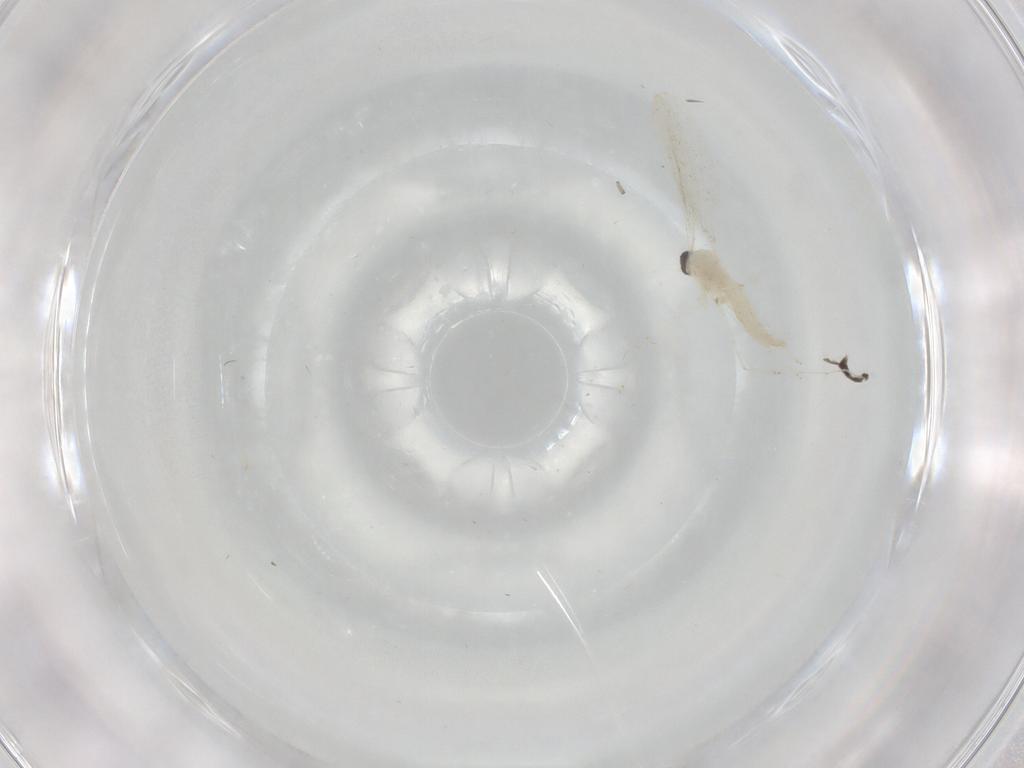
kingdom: Animalia
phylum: Arthropoda
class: Insecta
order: Diptera
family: Cecidomyiidae
